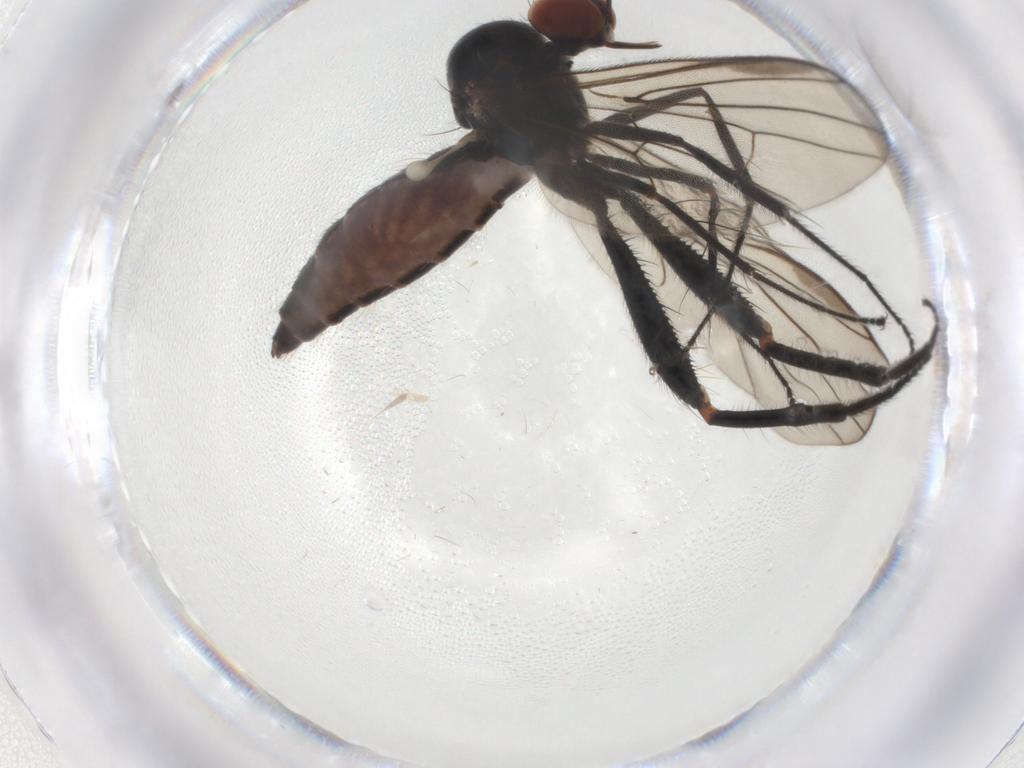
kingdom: Animalia
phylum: Arthropoda
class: Insecta
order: Diptera
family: Hybotidae
